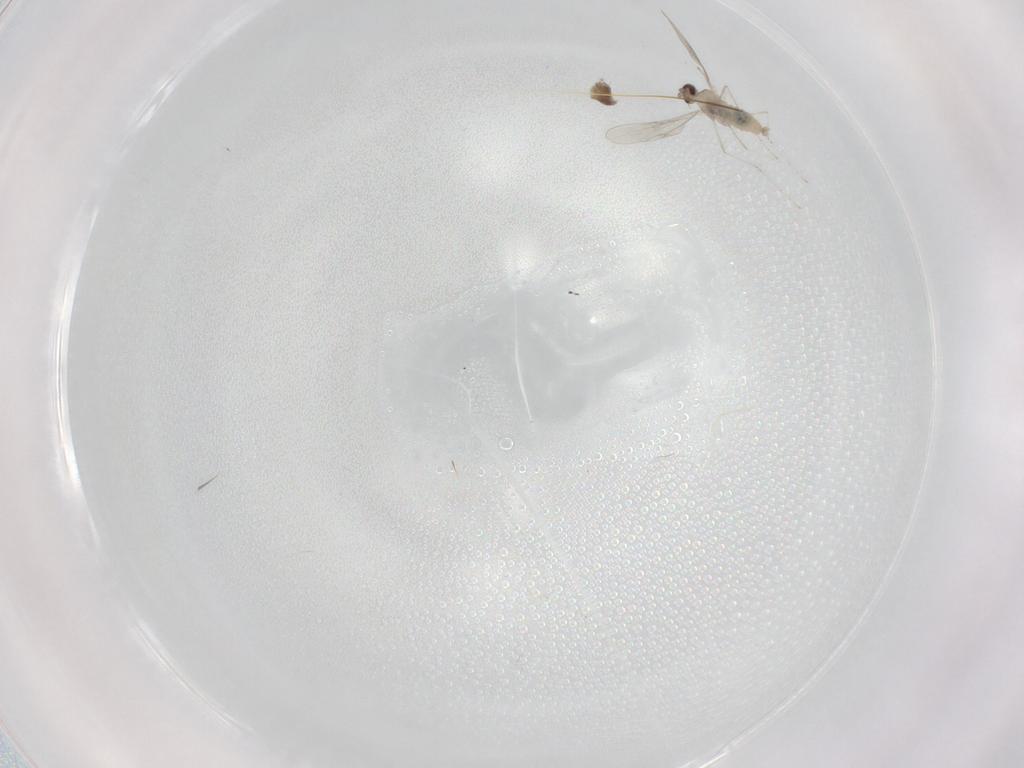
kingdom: Animalia
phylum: Arthropoda
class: Insecta
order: Diptera
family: Cecidomyiidae
